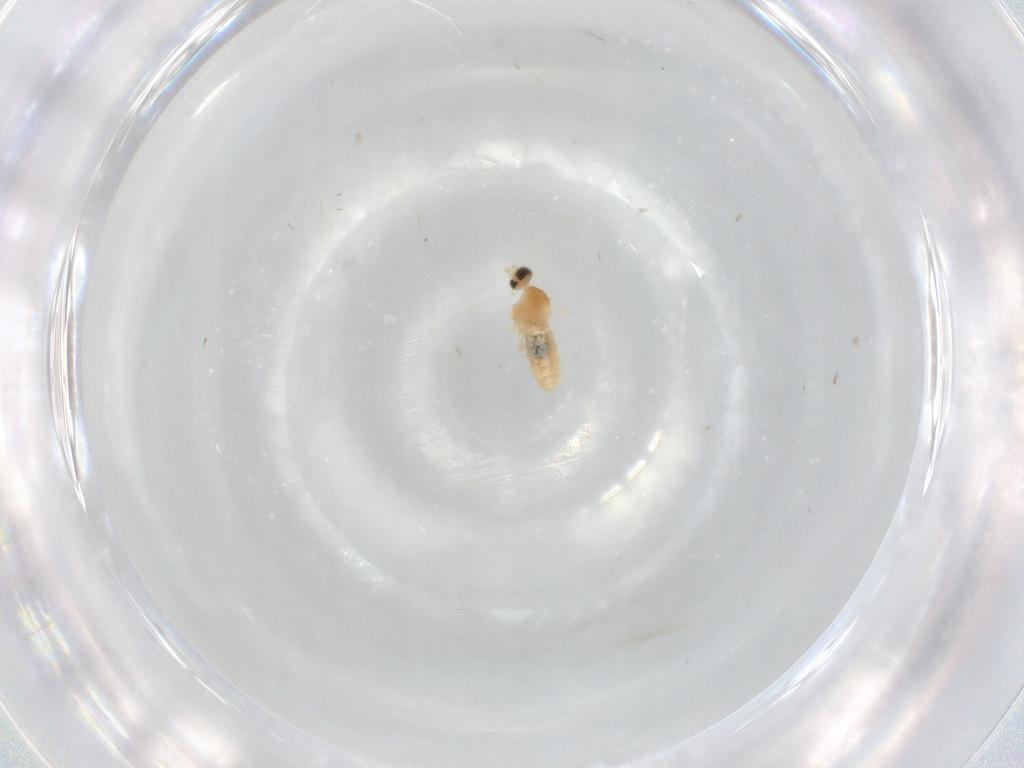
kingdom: Animalia
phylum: Arthropoda
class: Insecta
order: Diptera
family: Cecidomyiidae
